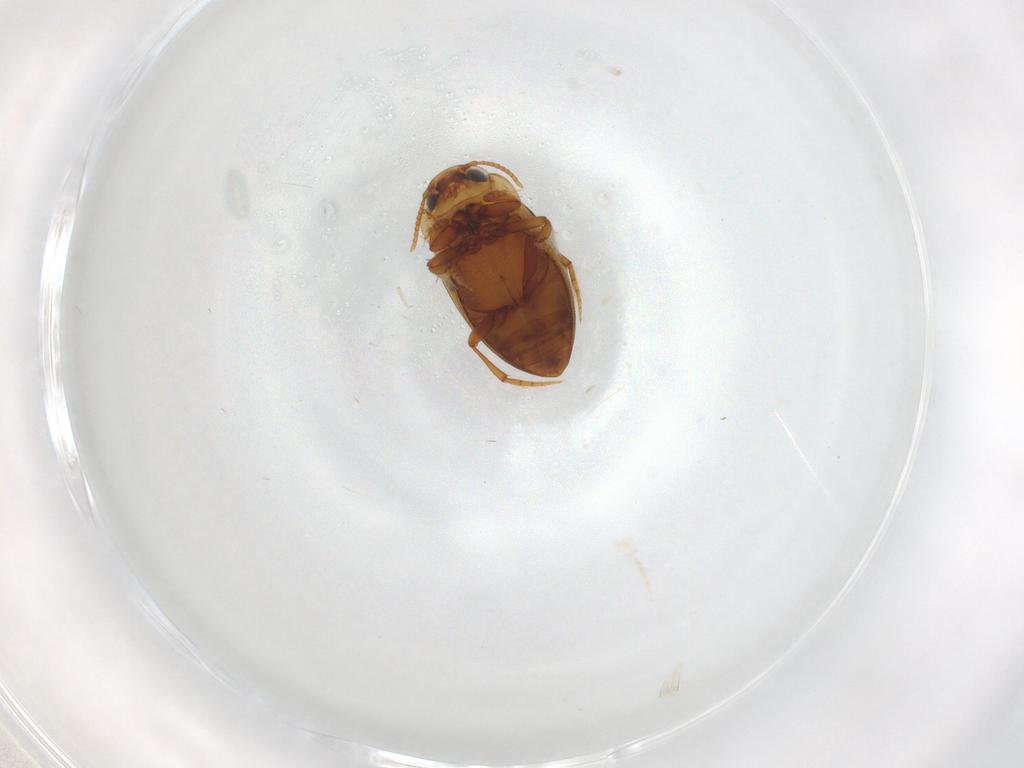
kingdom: Animalia
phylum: Arthropoda
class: Insecta
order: Coleoptera
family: Dytiscidae
